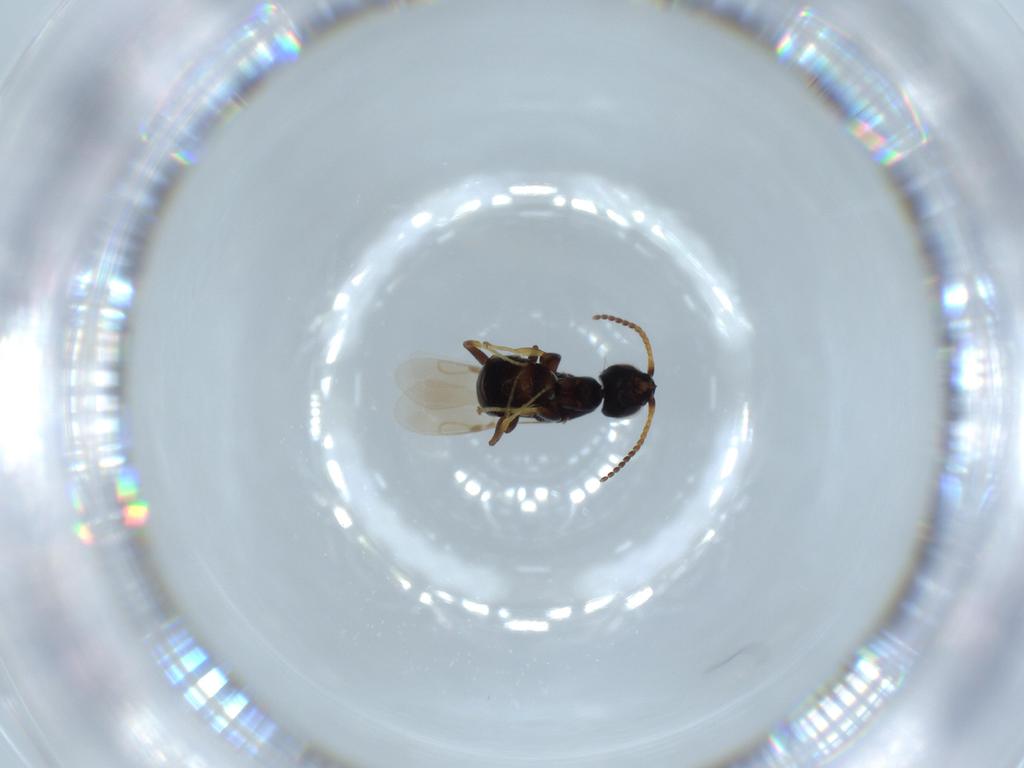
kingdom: Animalia
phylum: Arthropoda
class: Insecta
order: Hymenoptera
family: Bethylidae
